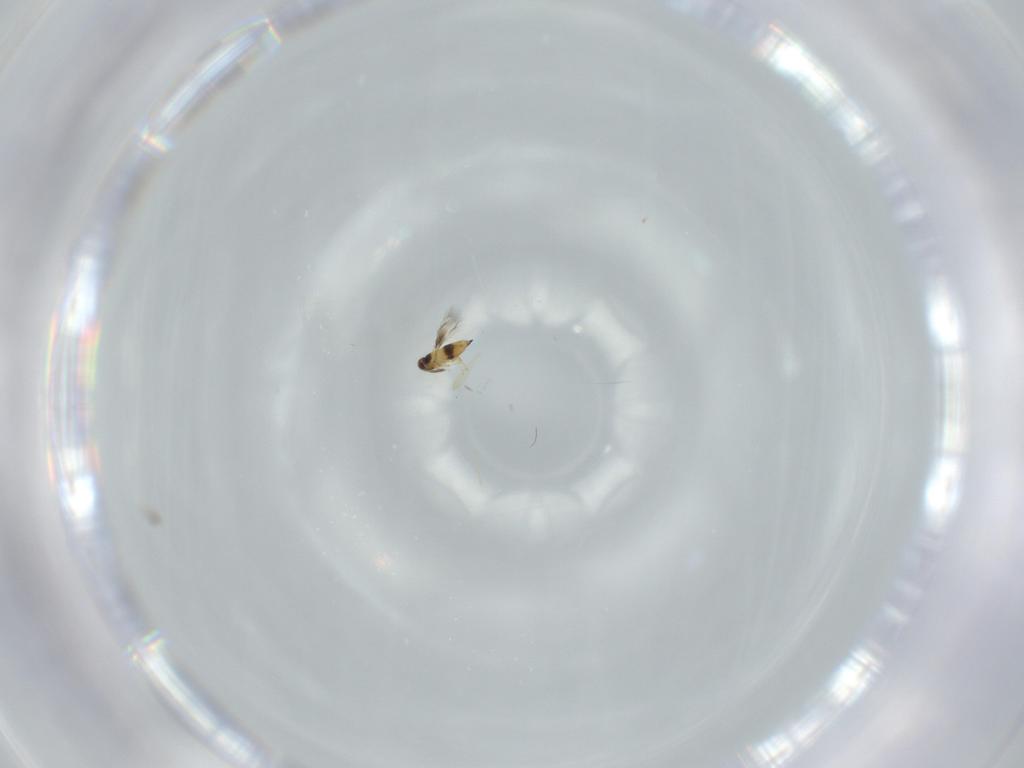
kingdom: Animalia
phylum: Arthropoda
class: Insecta
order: Diptera
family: Psychodidae
